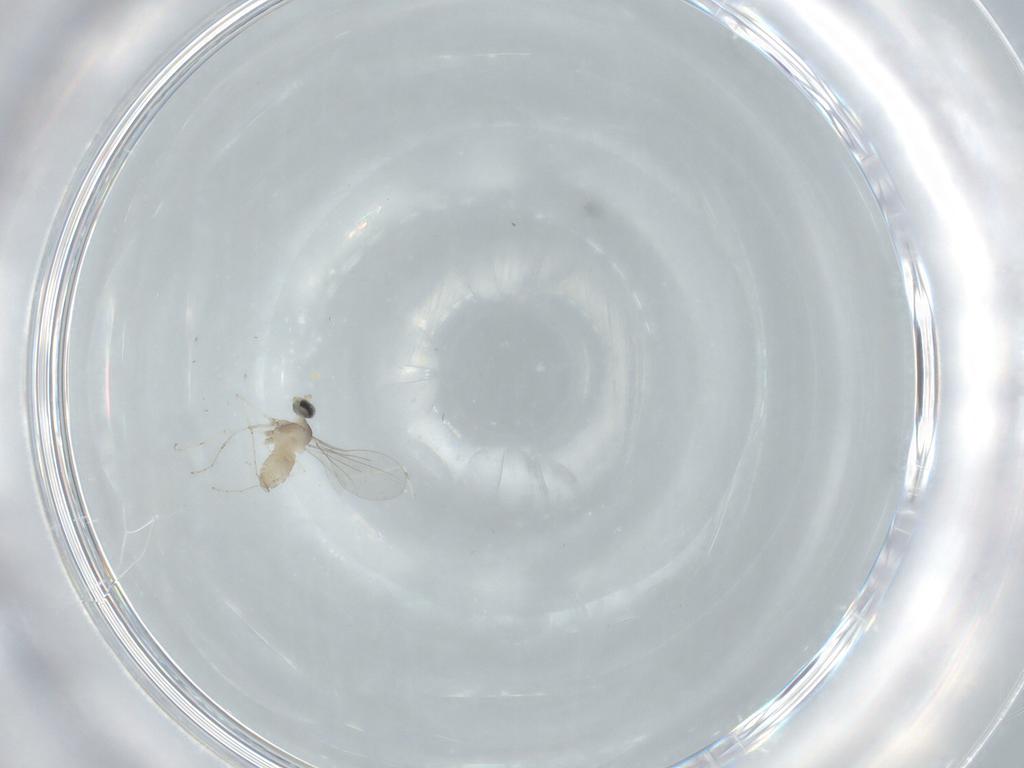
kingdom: Animalia
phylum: Arthropoda
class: Insecta
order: Diptera
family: Cecidomyiidae
